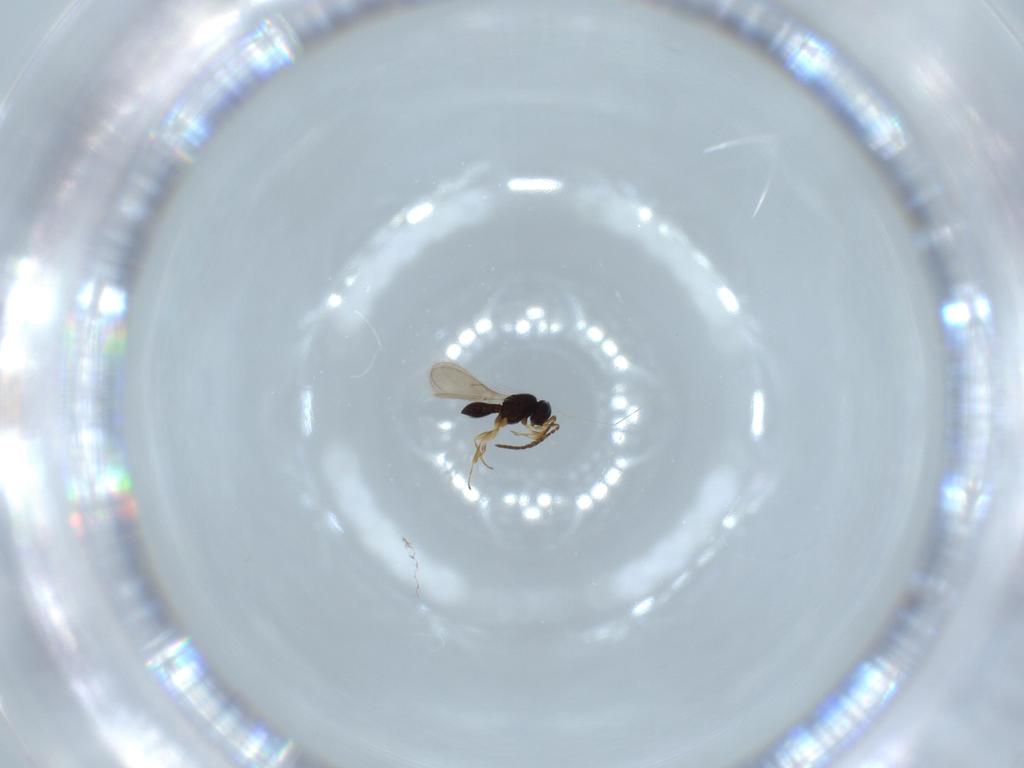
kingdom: Animalia
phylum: Arthropoda
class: Insecta
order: Hymenoptera
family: Scelionidae
